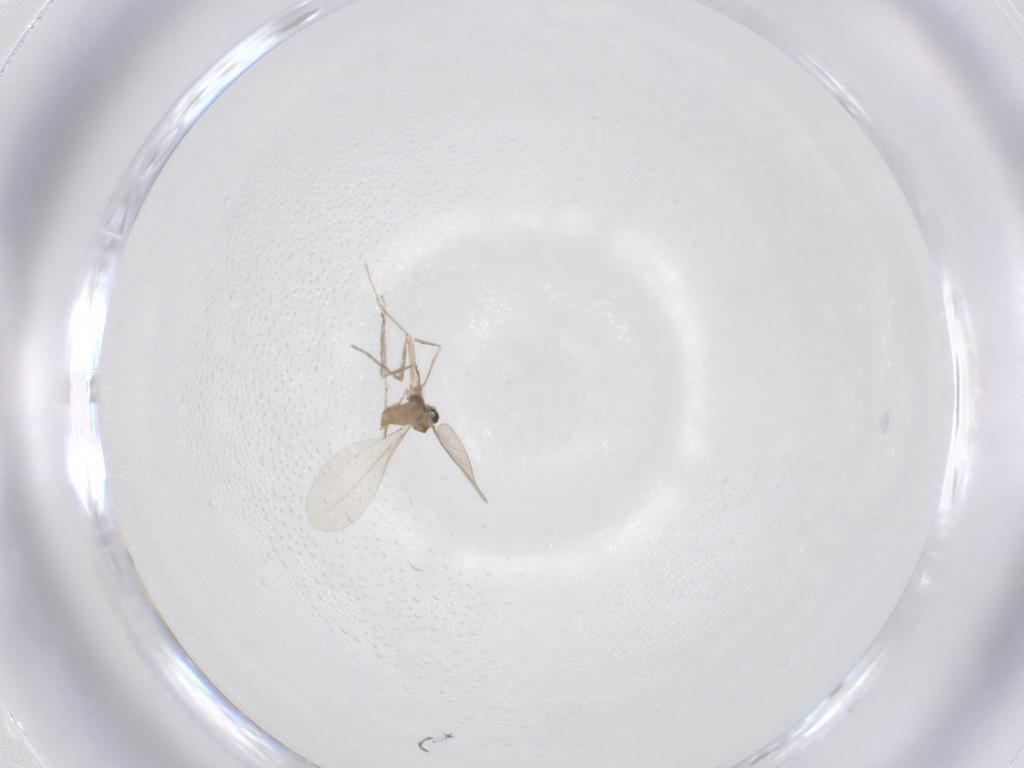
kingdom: Animalia
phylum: Arthropoda
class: Insecta
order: Diptera
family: Cecidomyiidae
